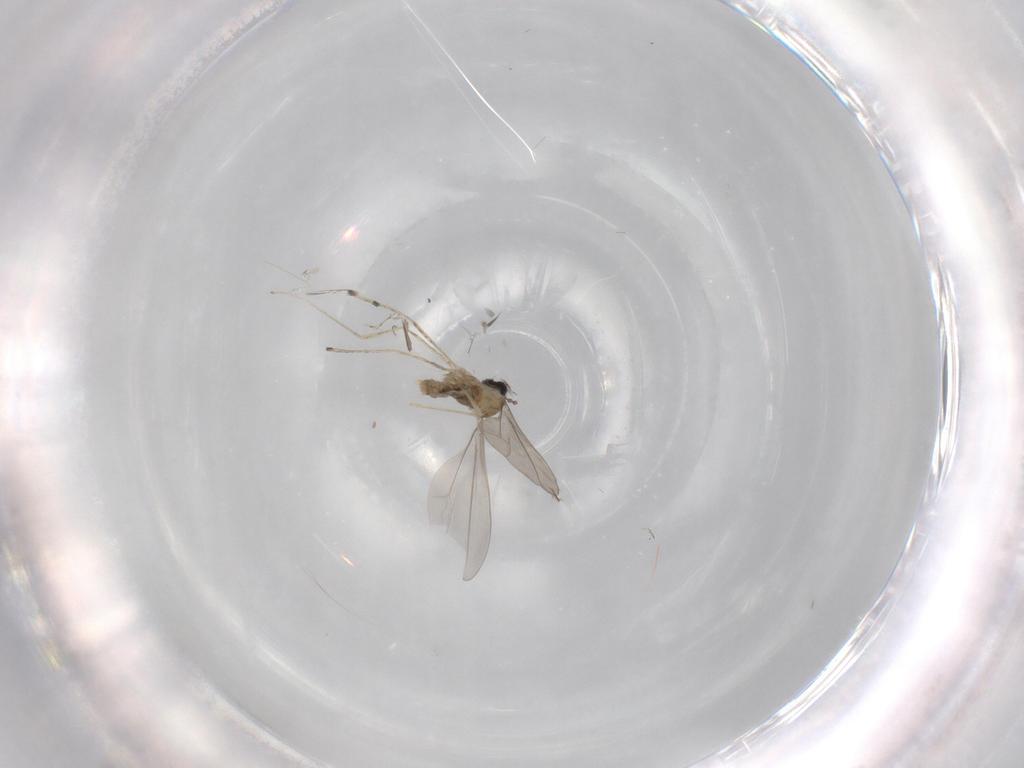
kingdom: Animalia
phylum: Arthropoda
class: Insecta
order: Diptera
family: Cecidomyiidae
